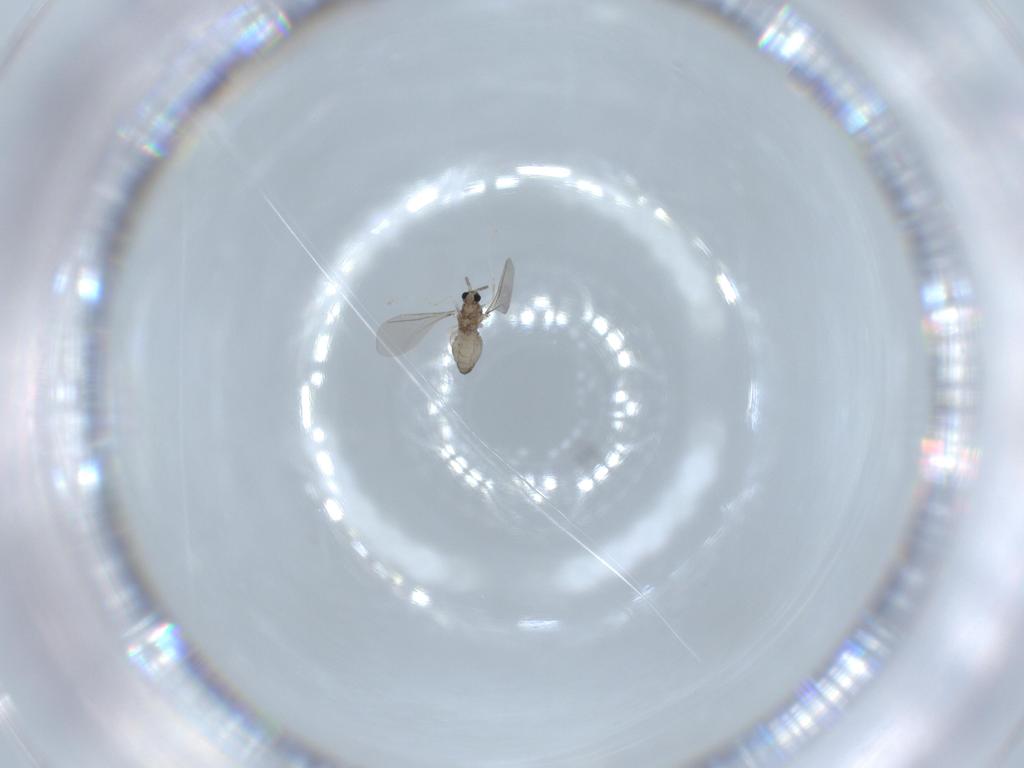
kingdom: Animalia
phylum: Arthropoda
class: Insecta
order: Diptera
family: Cecidomyiidae
